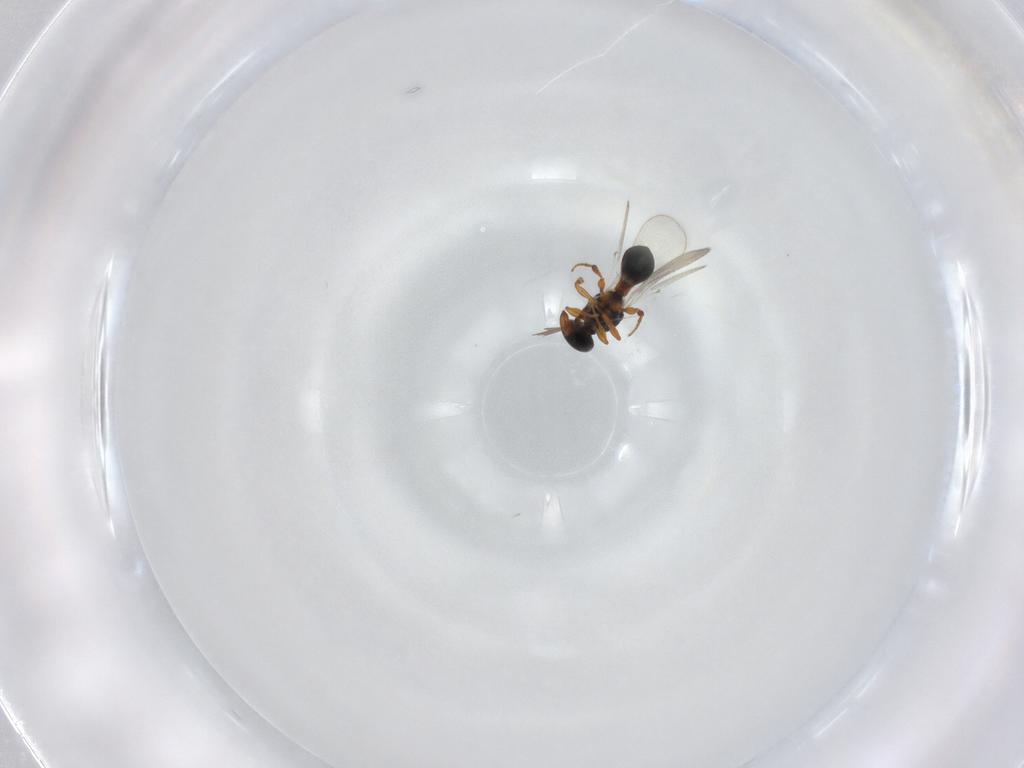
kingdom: Animalia
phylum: Arthropoda
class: Insecta
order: Hymenoptera
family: Platygastridae
